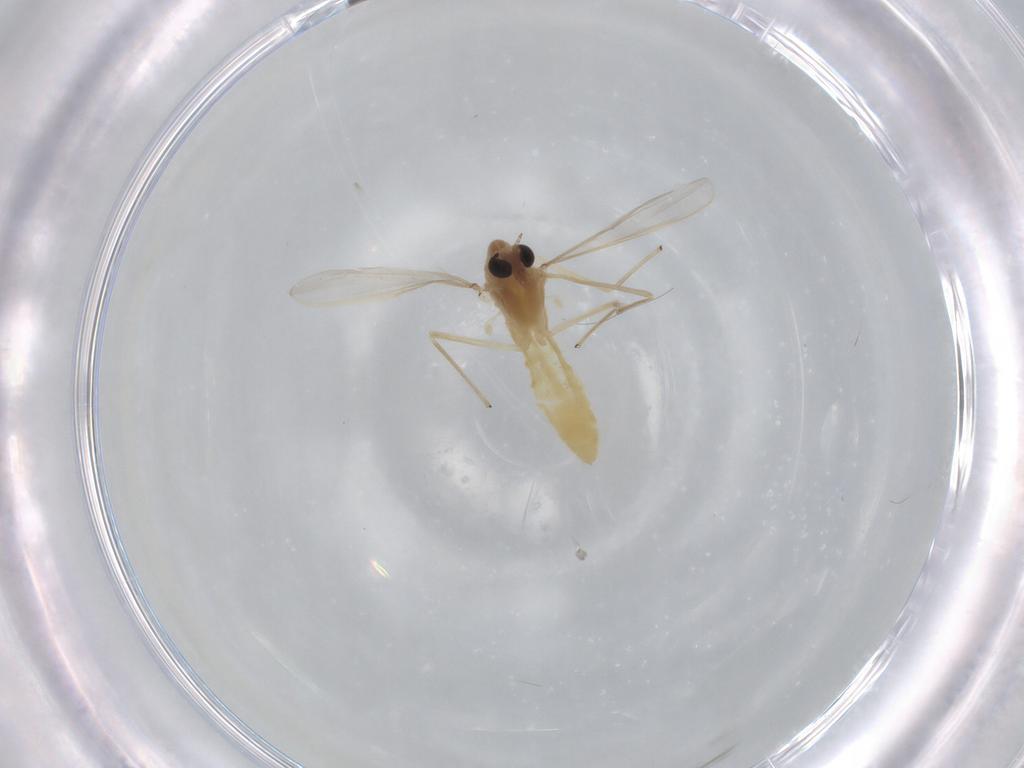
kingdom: Animalia
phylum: Arthropoda
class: Insecta
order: Diptera
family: Chironomidae
